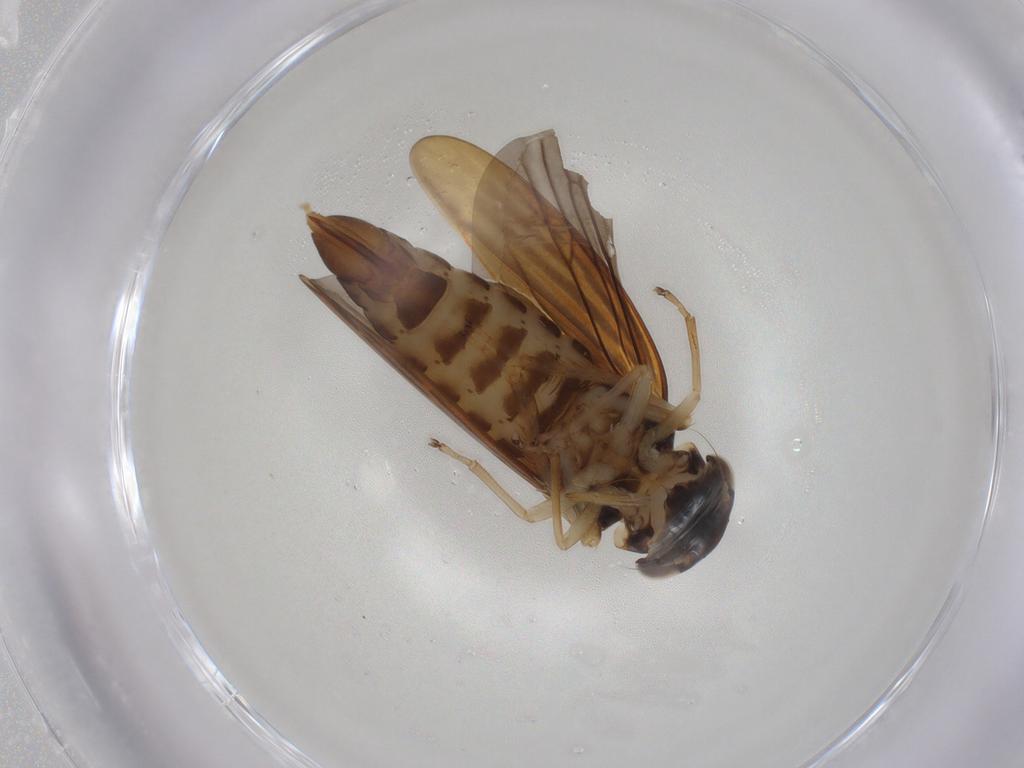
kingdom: Animalia
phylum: Arthropoda
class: Insecta
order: Hemiptera
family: Cicadellidae
